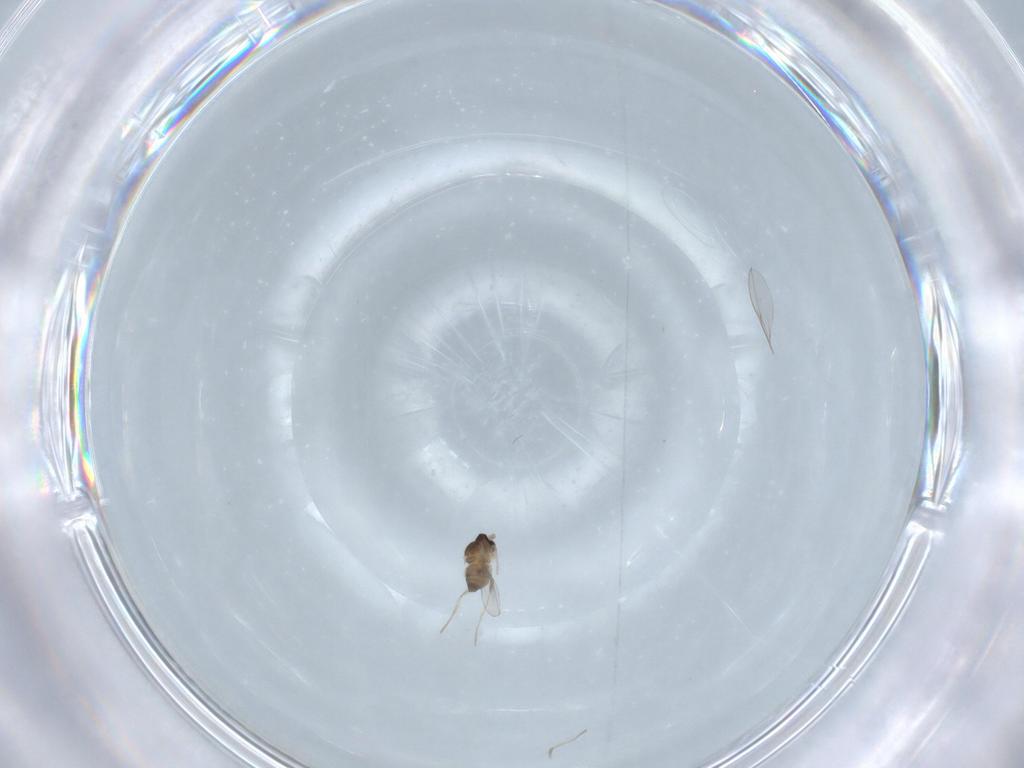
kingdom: Animalia
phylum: Arthropoda
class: Insecta
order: Diptera
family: Cecidomyiidae
